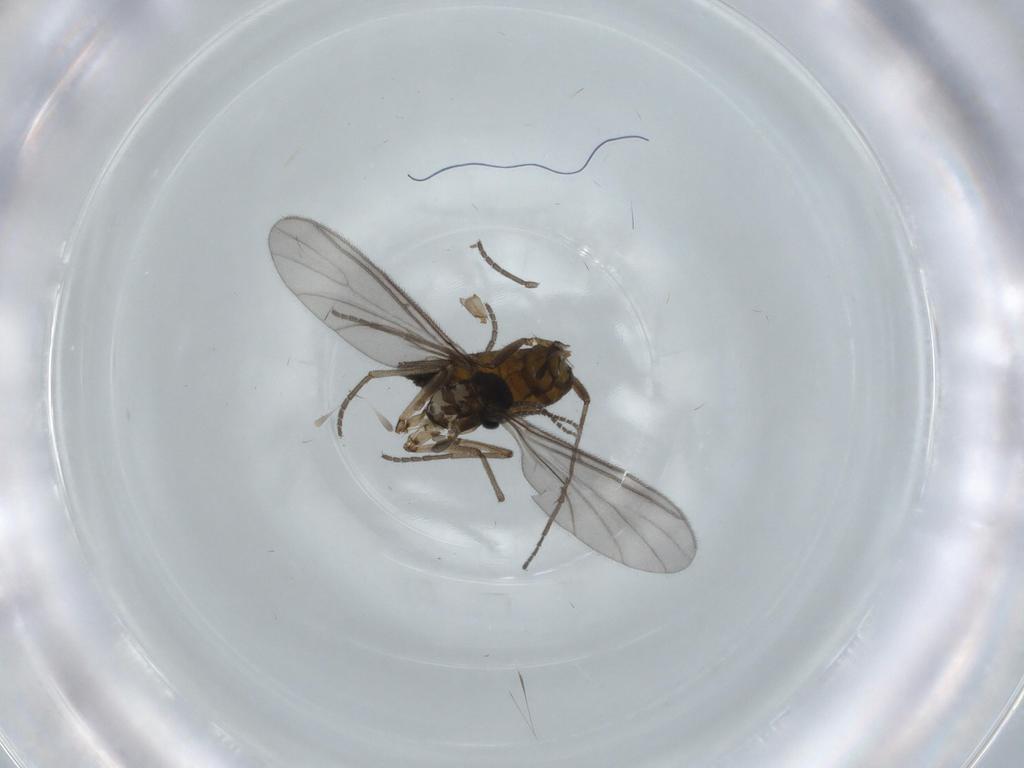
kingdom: Animalia
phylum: Arthropoda
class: Insecta
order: Diptera
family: Sciaridae
